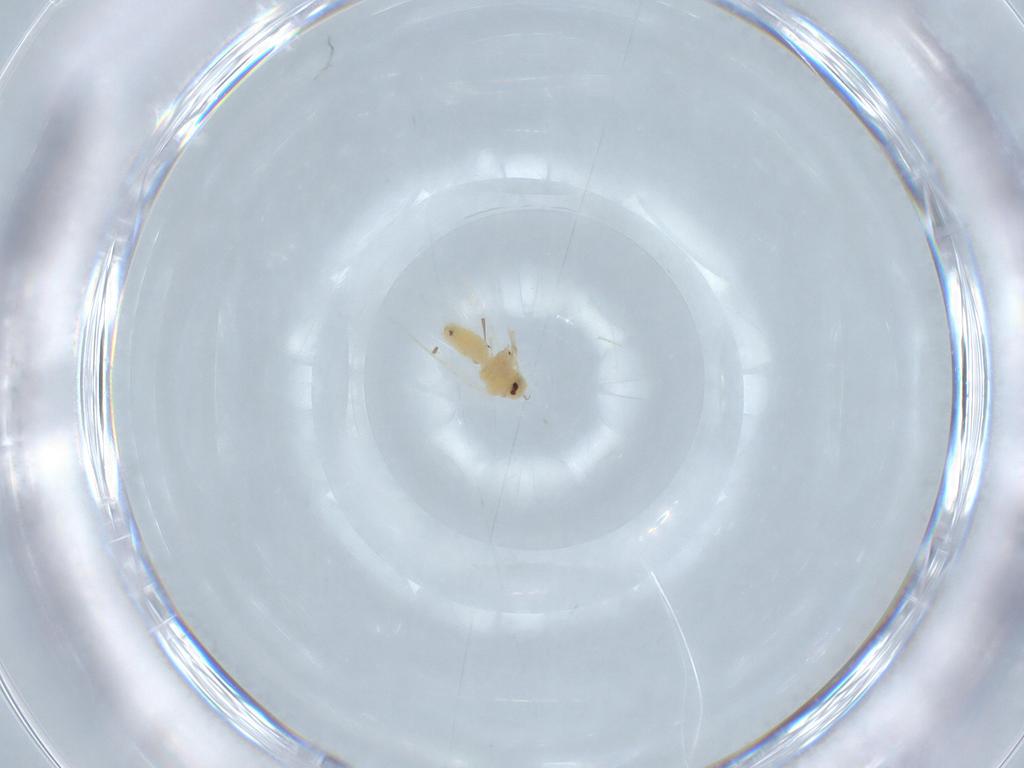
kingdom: Animalia
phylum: Arthropoda
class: Insecta
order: Hemiptera
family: Aleyrodidae
